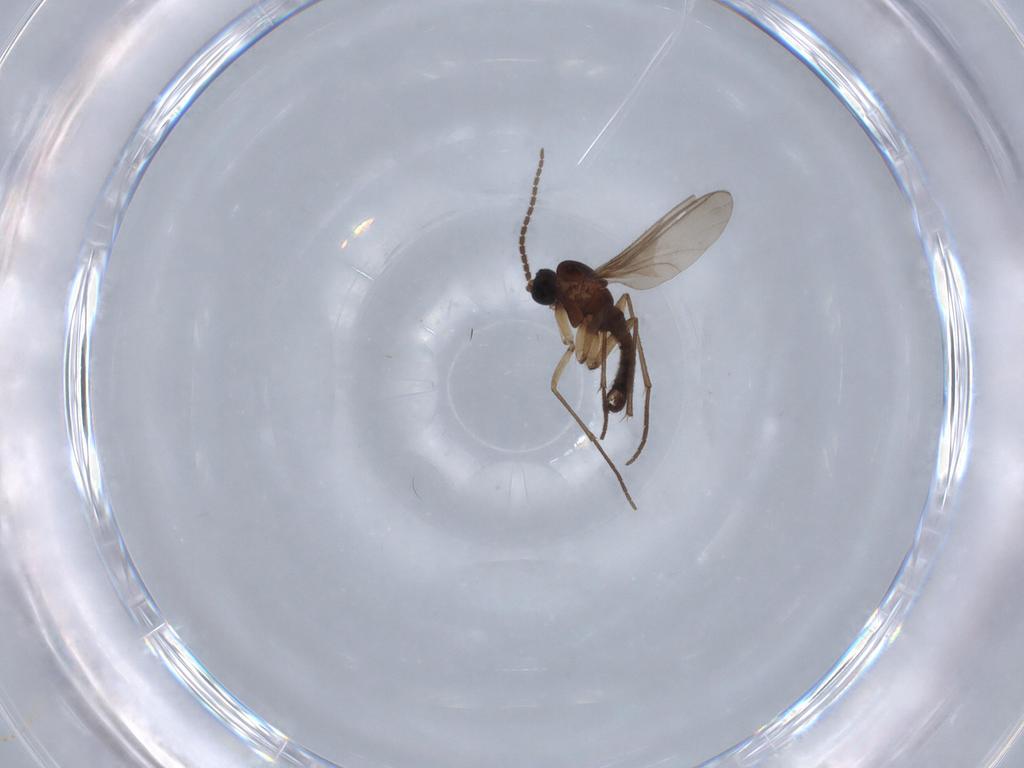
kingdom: Animalia
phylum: Arthropoda
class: Insecta
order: Diptera
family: Sciaridae
